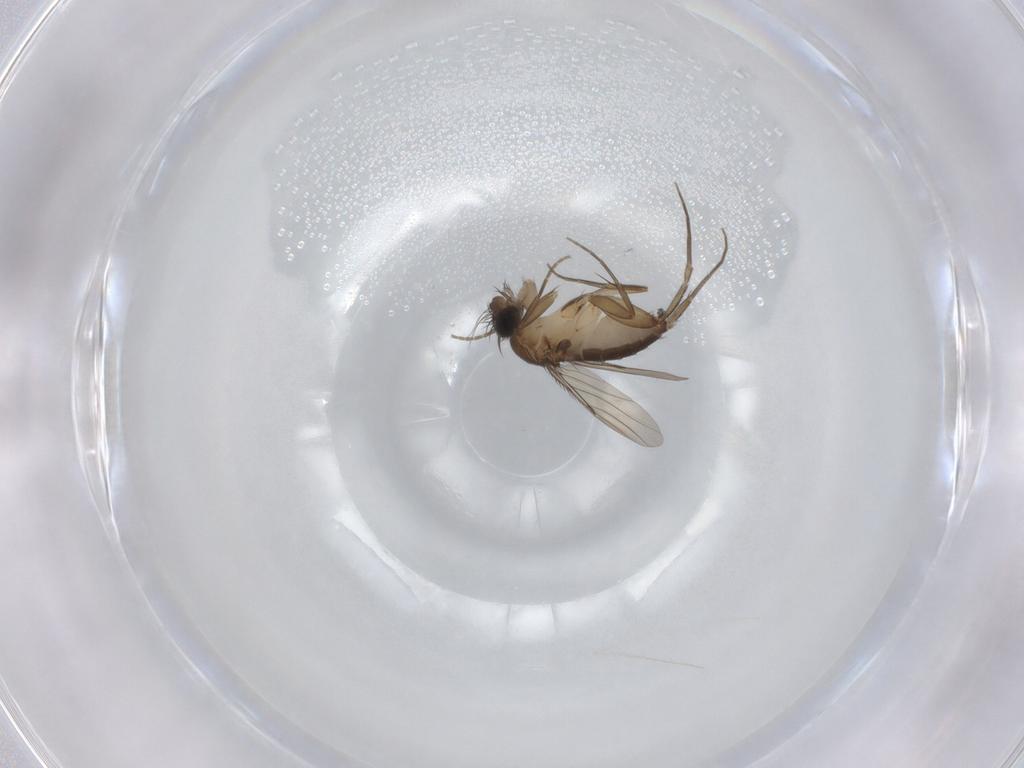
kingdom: Animalia
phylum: Arthropoda
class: Insecta
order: Diptera
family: Phoridae
